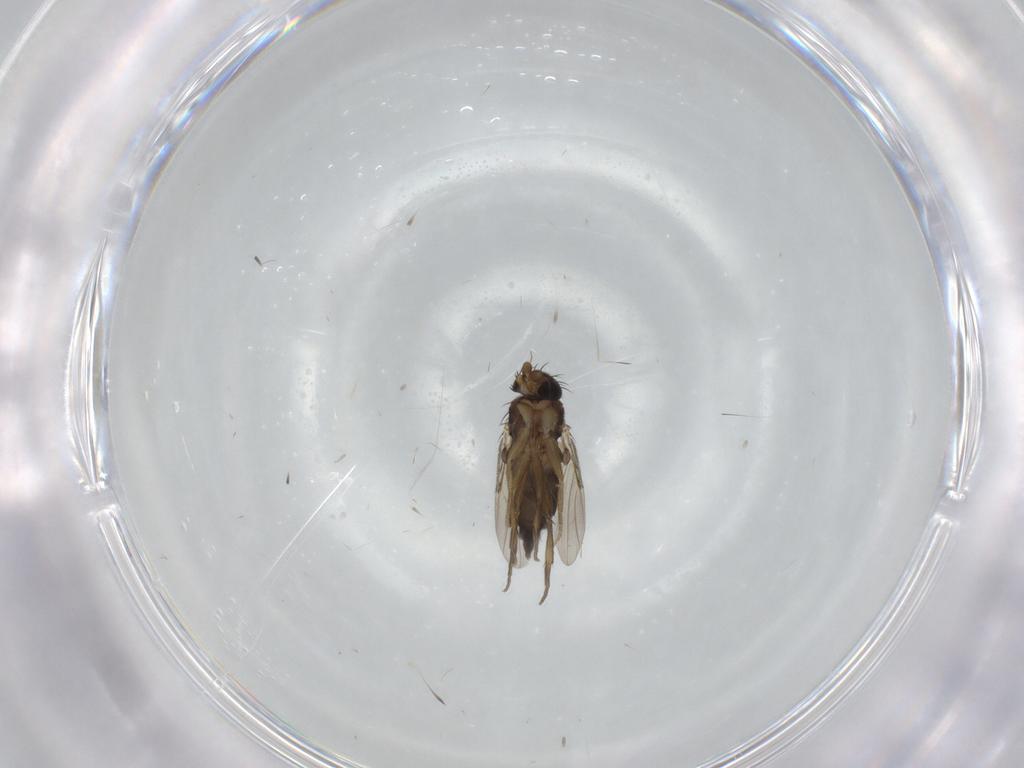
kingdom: Animalia
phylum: Arthropoda
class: Insecta
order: Diptera
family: Phoridae
